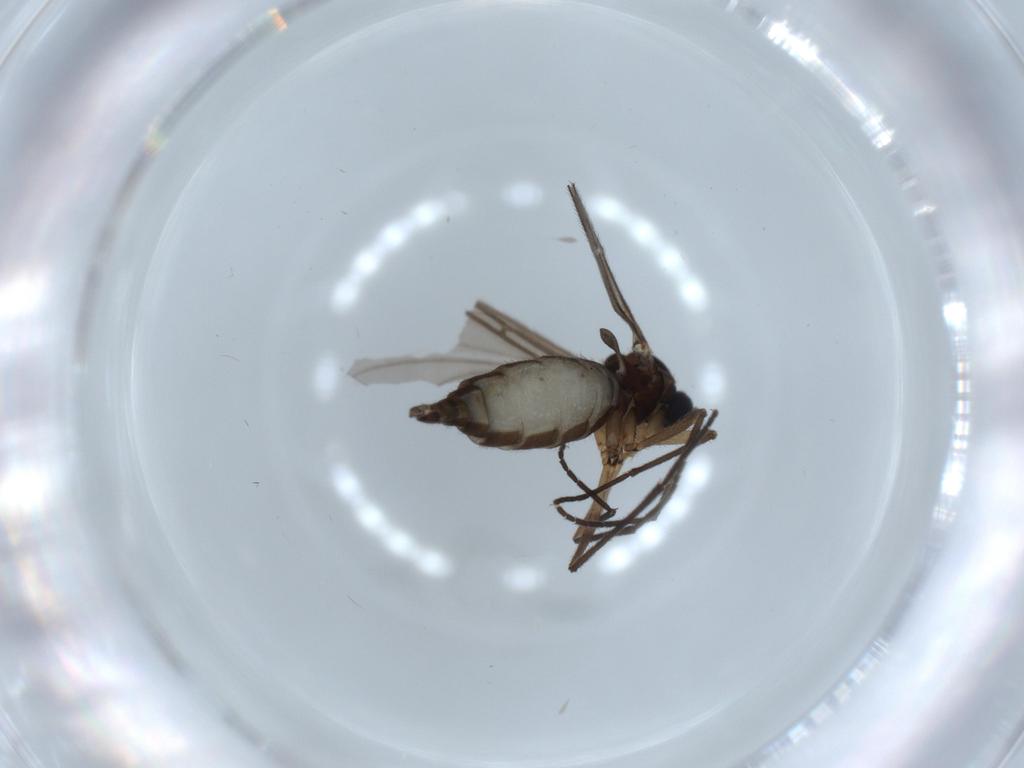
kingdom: Animalia
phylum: Arthropoda
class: Insecta
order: Diptera
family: Sciaridae
